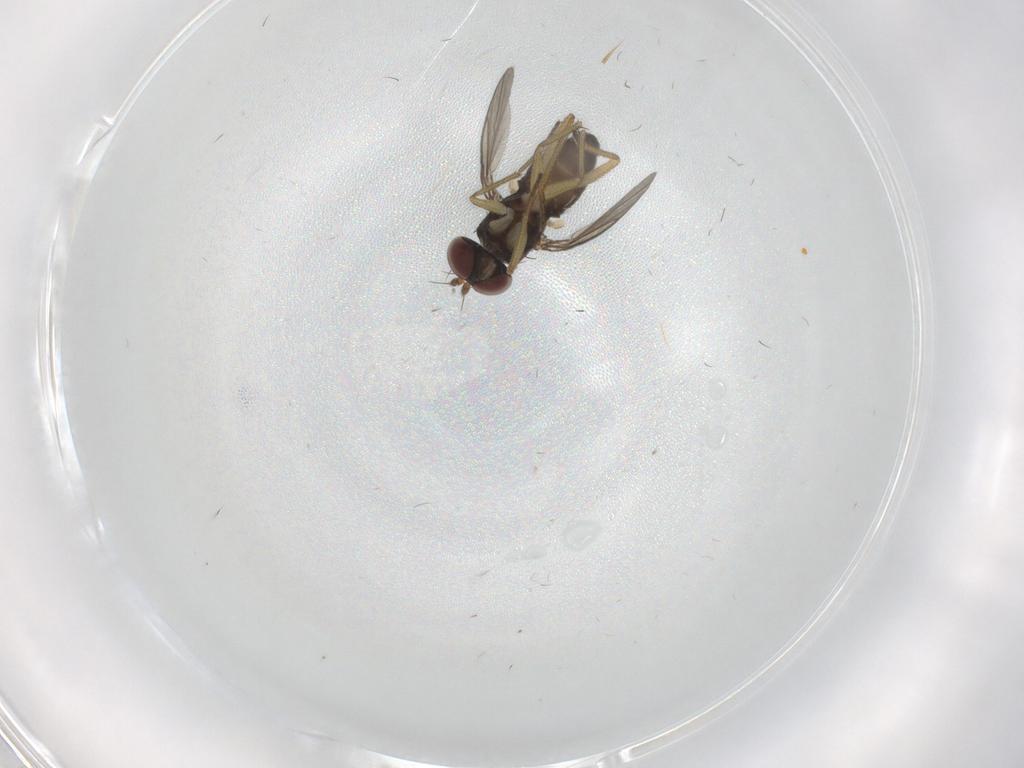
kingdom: Animalia
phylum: Arthropoda
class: Insecta
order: Diptera
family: Dolichopodidae
